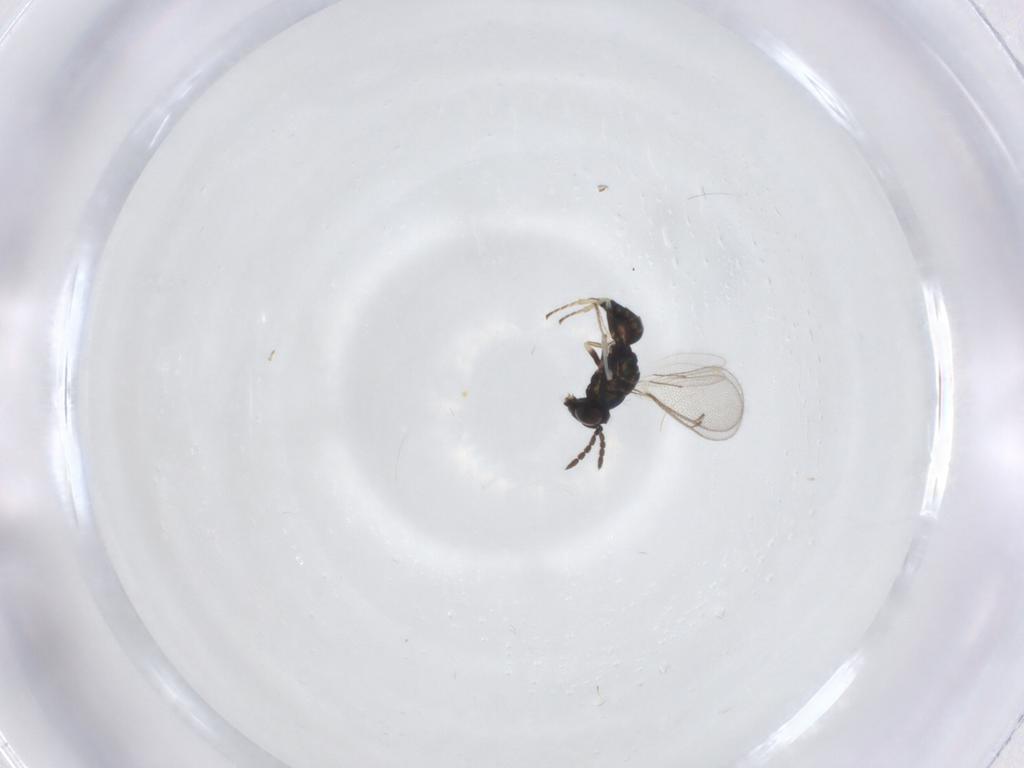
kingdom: Animalia
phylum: Arthropoda
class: Insecta
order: Hymenoptera
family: Eulophidae
